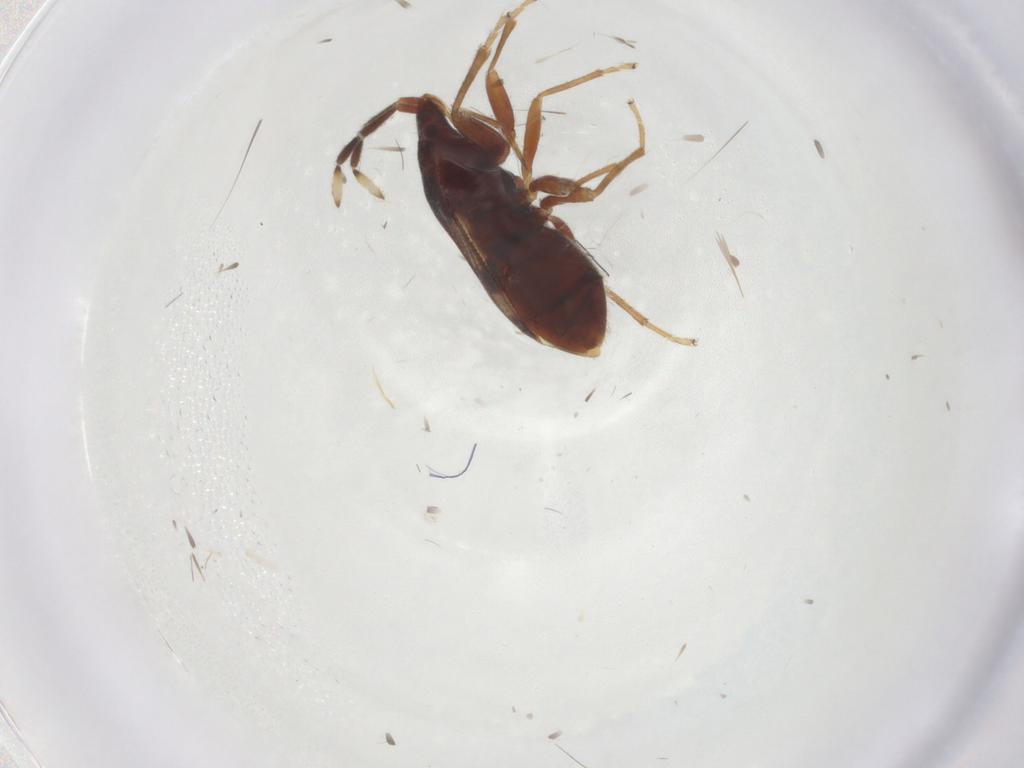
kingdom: Animalia
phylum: Arthropoda
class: Insecta
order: Hemiptera
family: Rhyparochromidae
